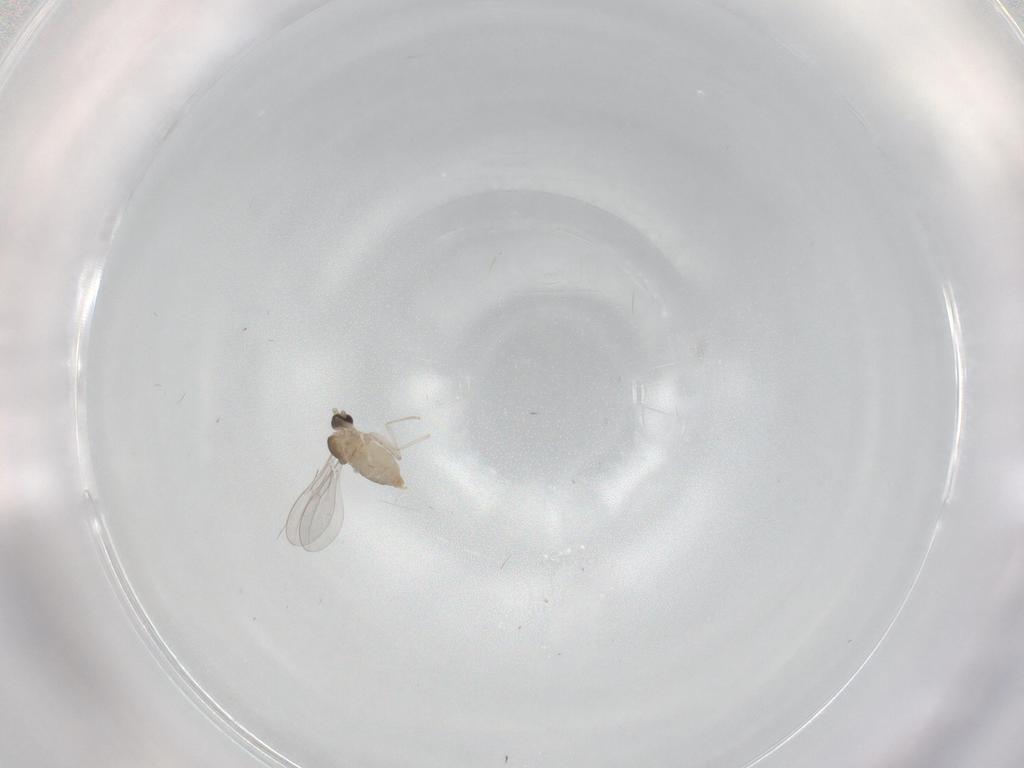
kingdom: Animalia
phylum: Arthropoda
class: Insecta
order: Diptera
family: Cecidomyiidae
